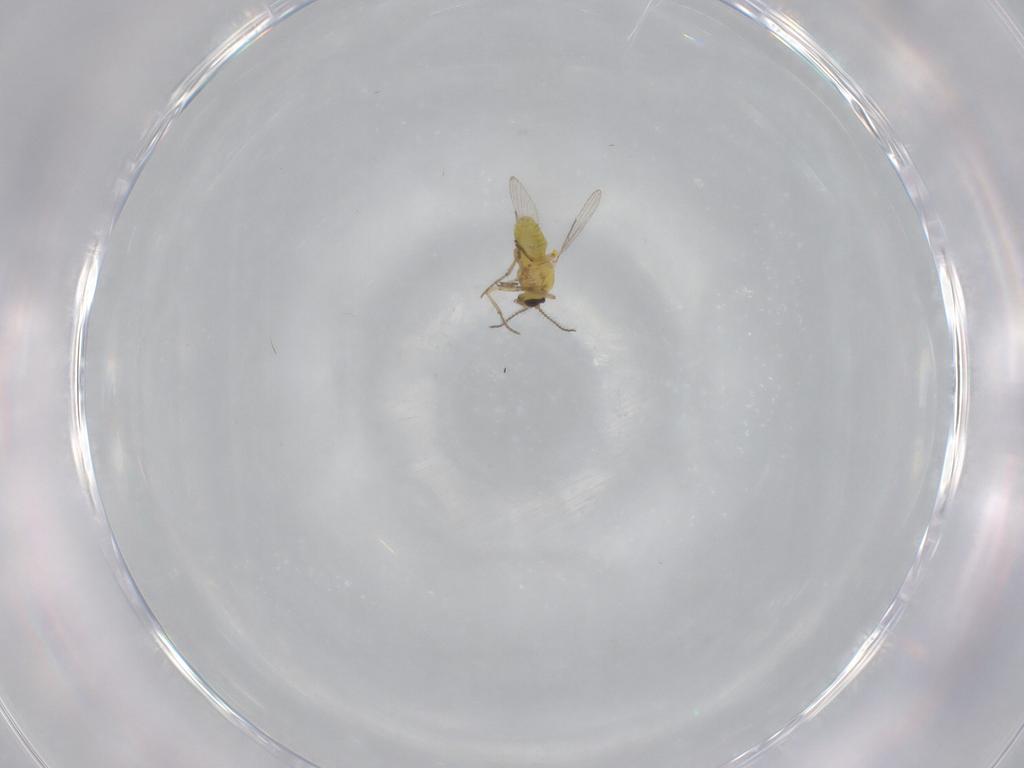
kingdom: Animalia
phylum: Arthropoda
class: Insecta
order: Diptera
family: Ceratopogonidae
